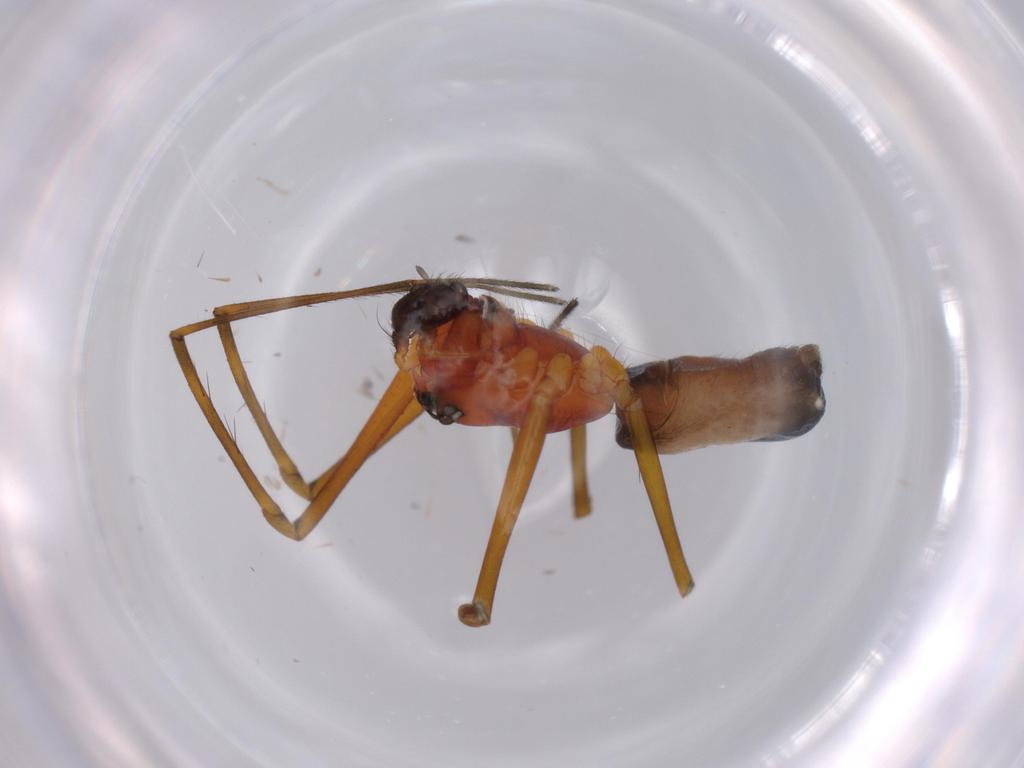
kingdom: Animalia
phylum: Arthropoda
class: Arachnida
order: Araneae
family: Linyphiidae
